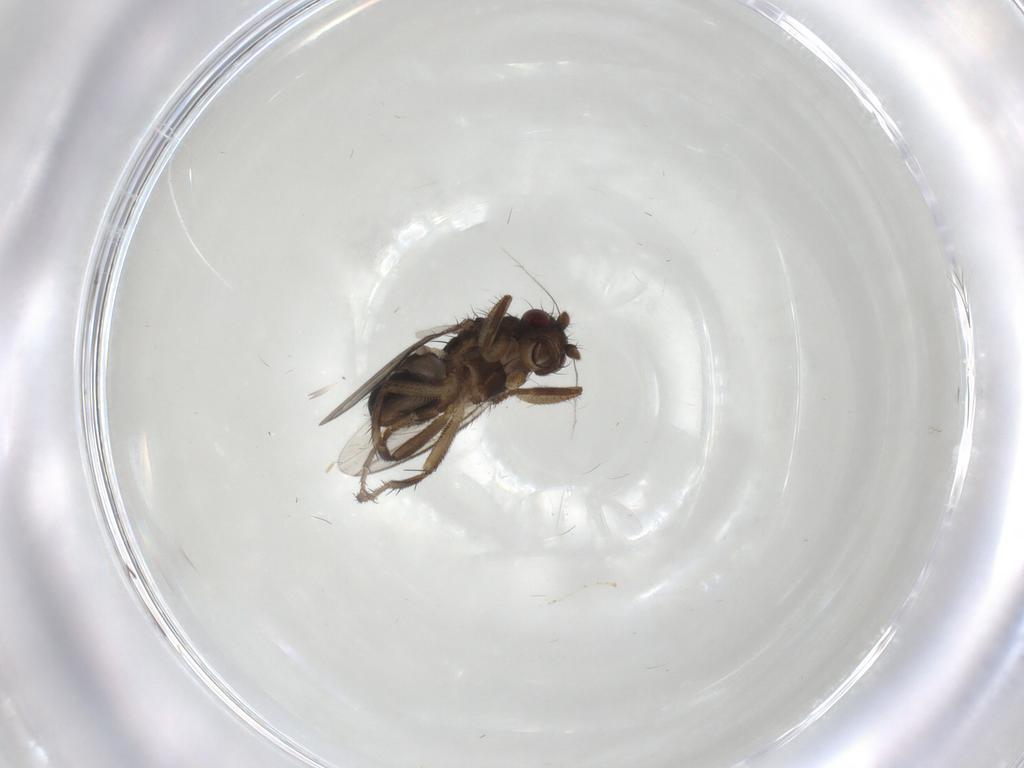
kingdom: Animalia
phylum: Arthropoda
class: Insecta
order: Diptera
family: Sphaeroceridae
